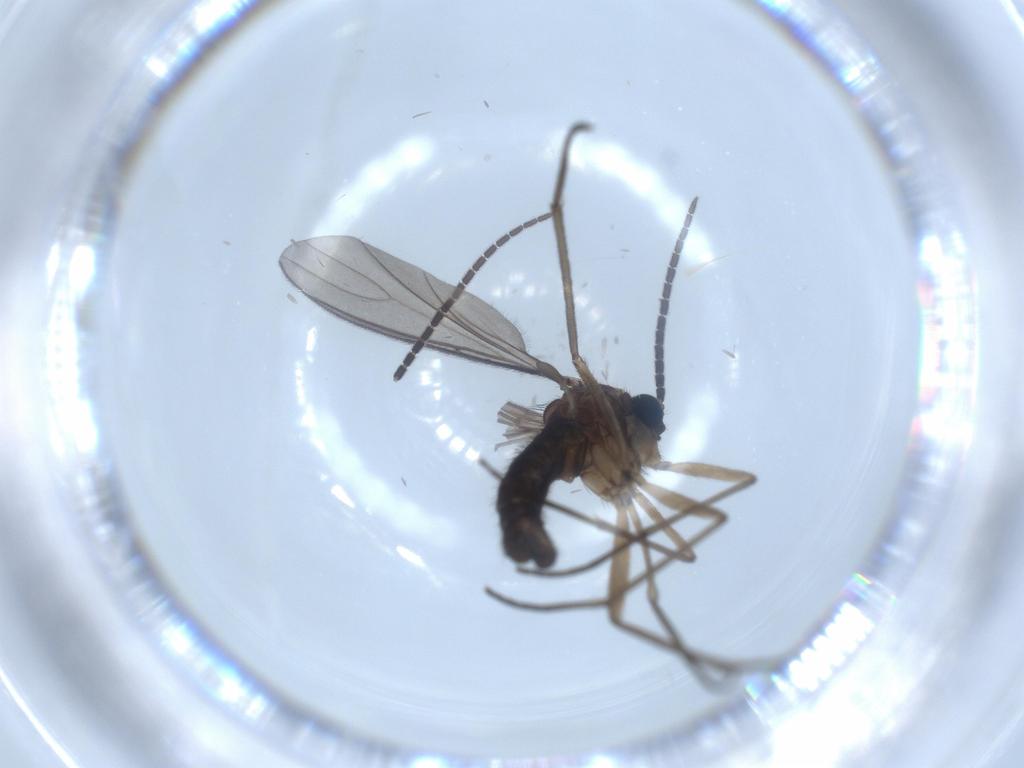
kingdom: Animalia
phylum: Arthropoda
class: Insecta
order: Diptera
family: Sciaridae
